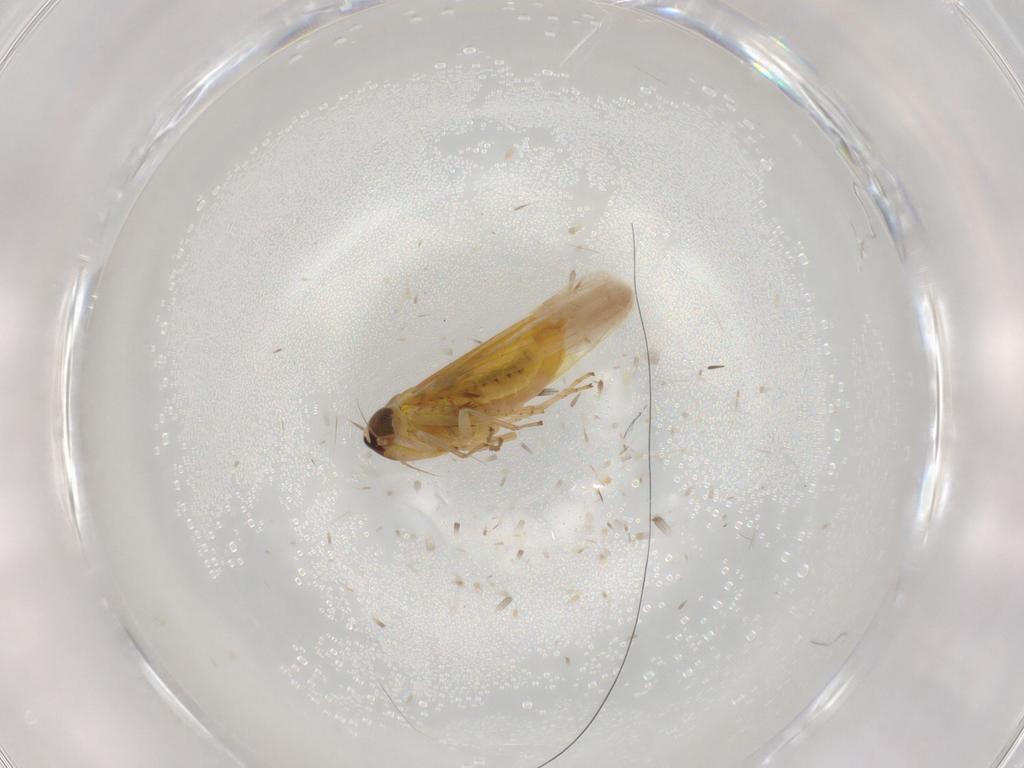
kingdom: Animalia
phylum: Arthropoda
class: Insecta
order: Hemiptera
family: Cicadellidae
